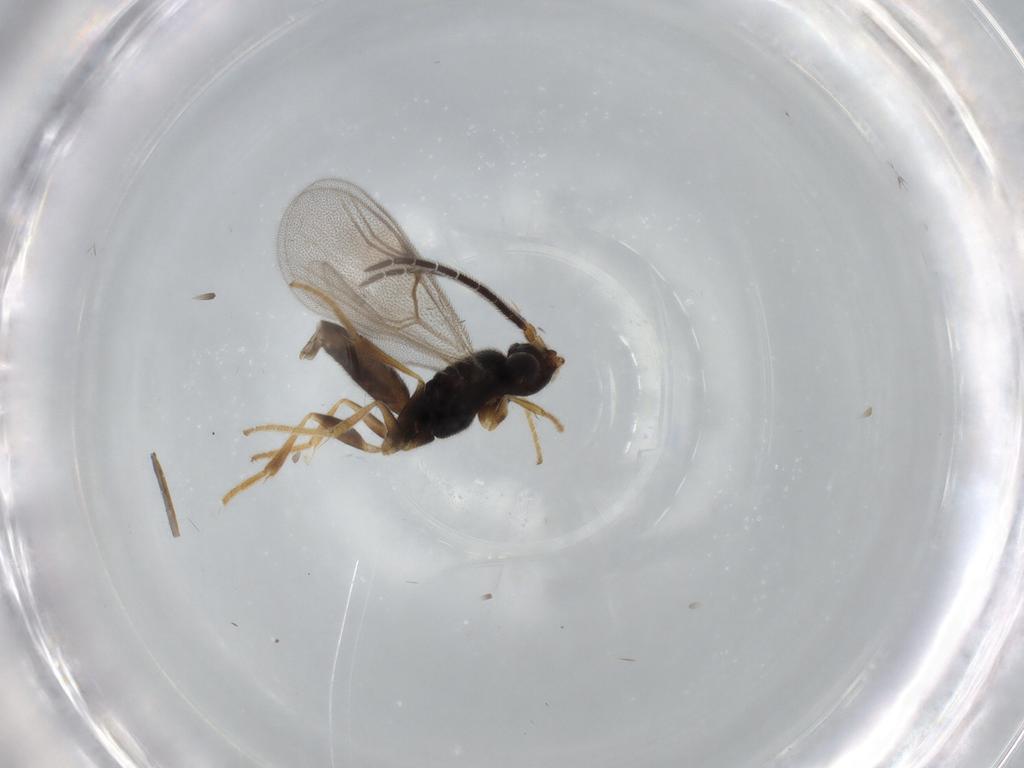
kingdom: Animalia
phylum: Arthropoda
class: Insecta
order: Hymenoptera
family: Dryinidae
